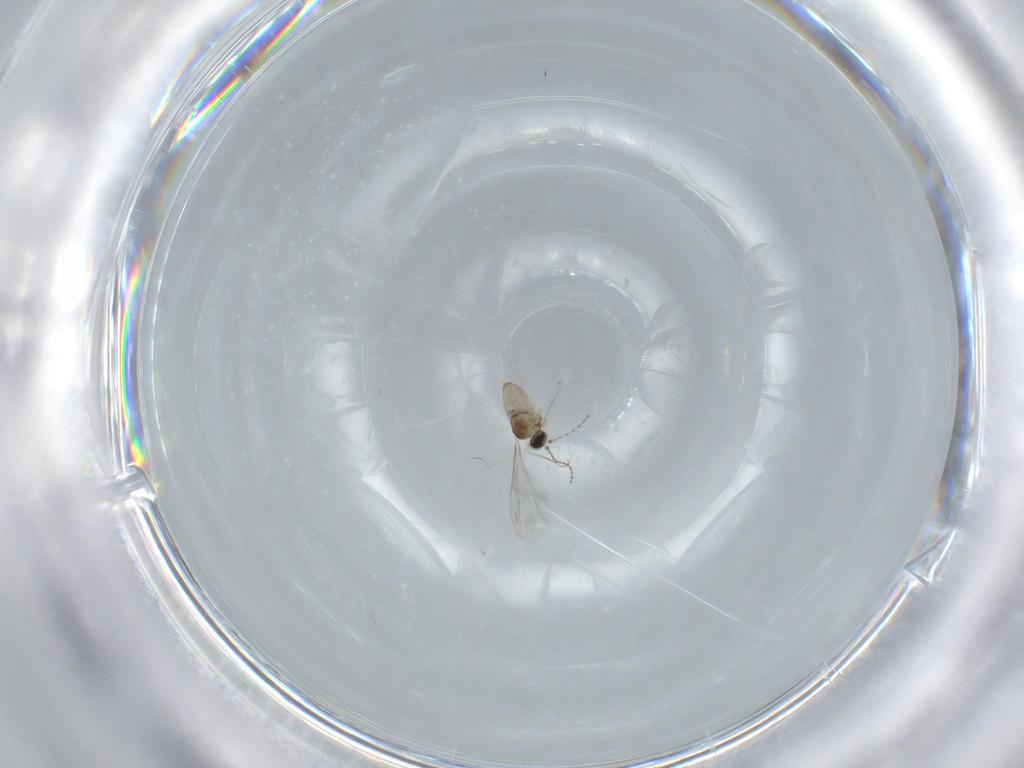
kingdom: Animalia
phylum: Arthropoda
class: Insecta
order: Diptera
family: Cecidomyiidae
